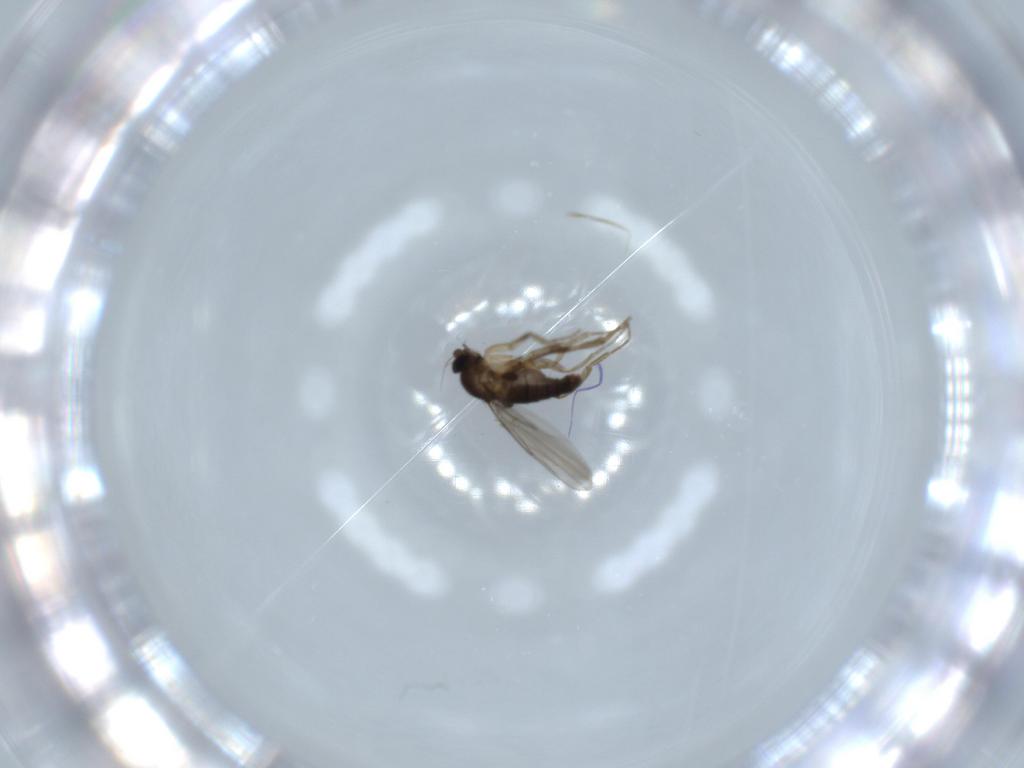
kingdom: Animalia
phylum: Arthropoda
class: Insecta
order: Diptera
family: Phoridae
